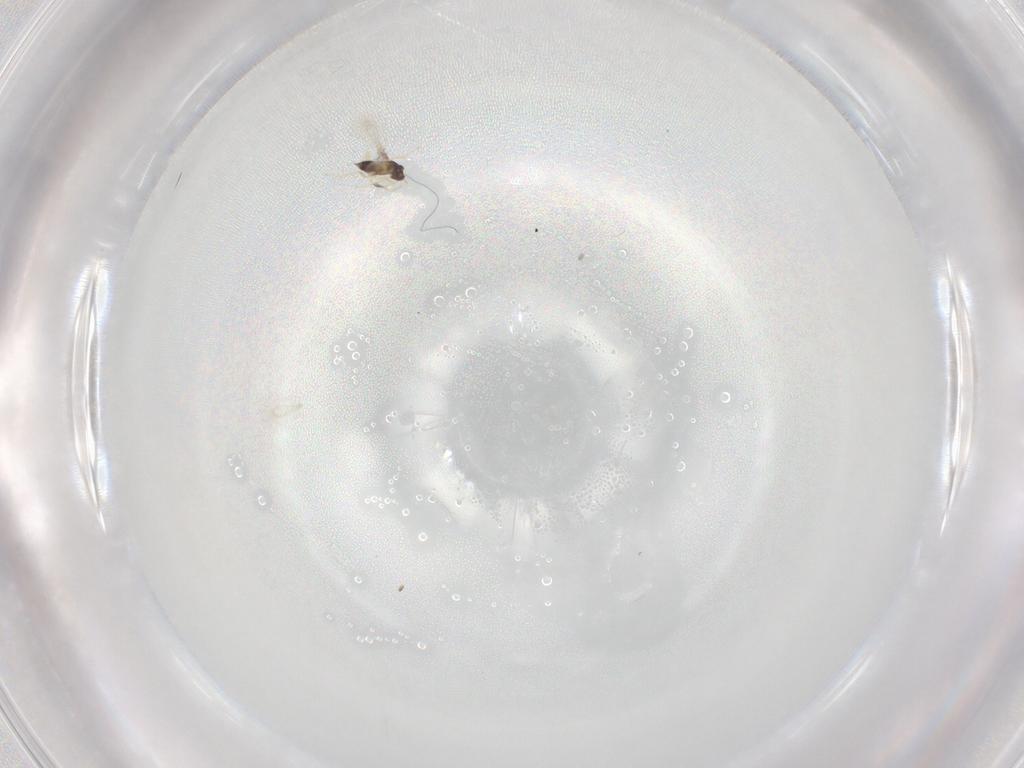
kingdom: Animalia
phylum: Arthropoda
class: Insecta
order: Hymenoptera
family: Mymaridae
